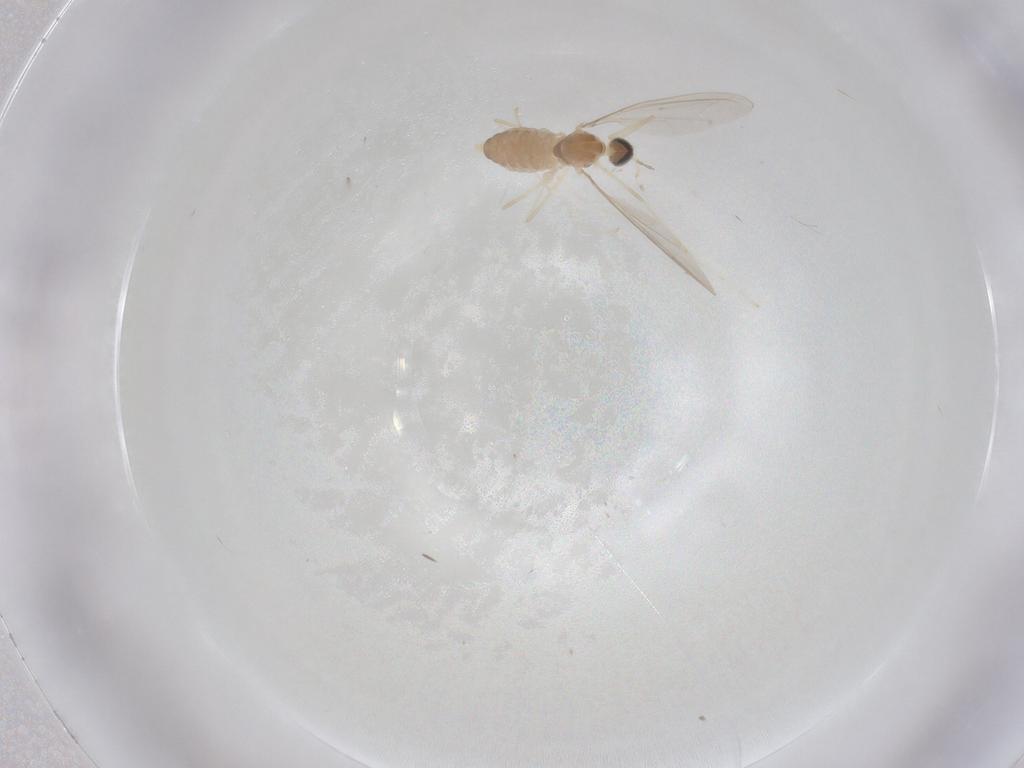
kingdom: Animalia
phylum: Arthropoda
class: Insecta
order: Diptera
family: Cecidomyiidae
